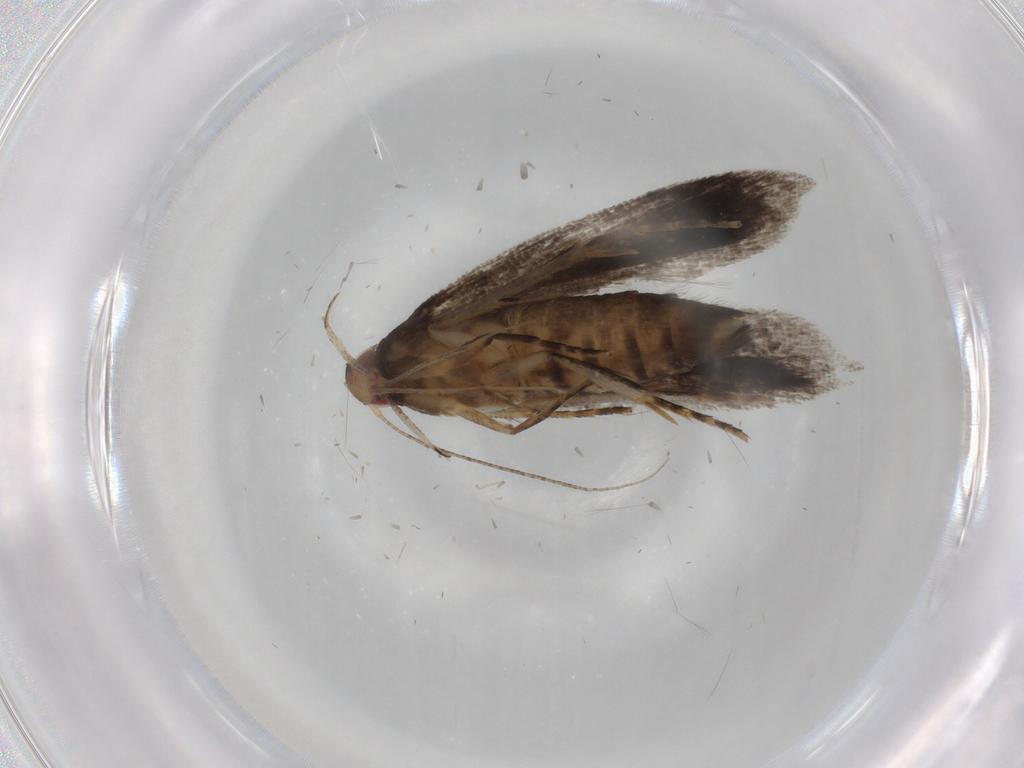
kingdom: Animalia
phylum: Arthropoda
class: Insecta
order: Lepidoptera
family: Gelechiidae
